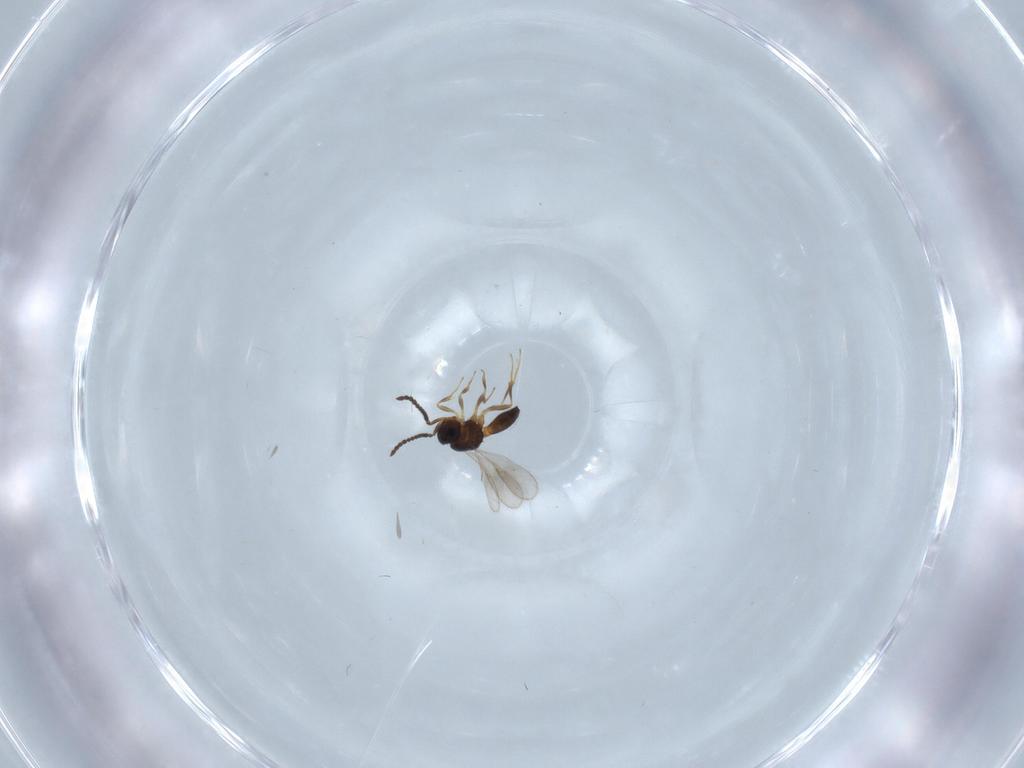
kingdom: Animalia
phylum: Arthropoda
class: Insecta
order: Hymenoptera
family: Scelionidae
